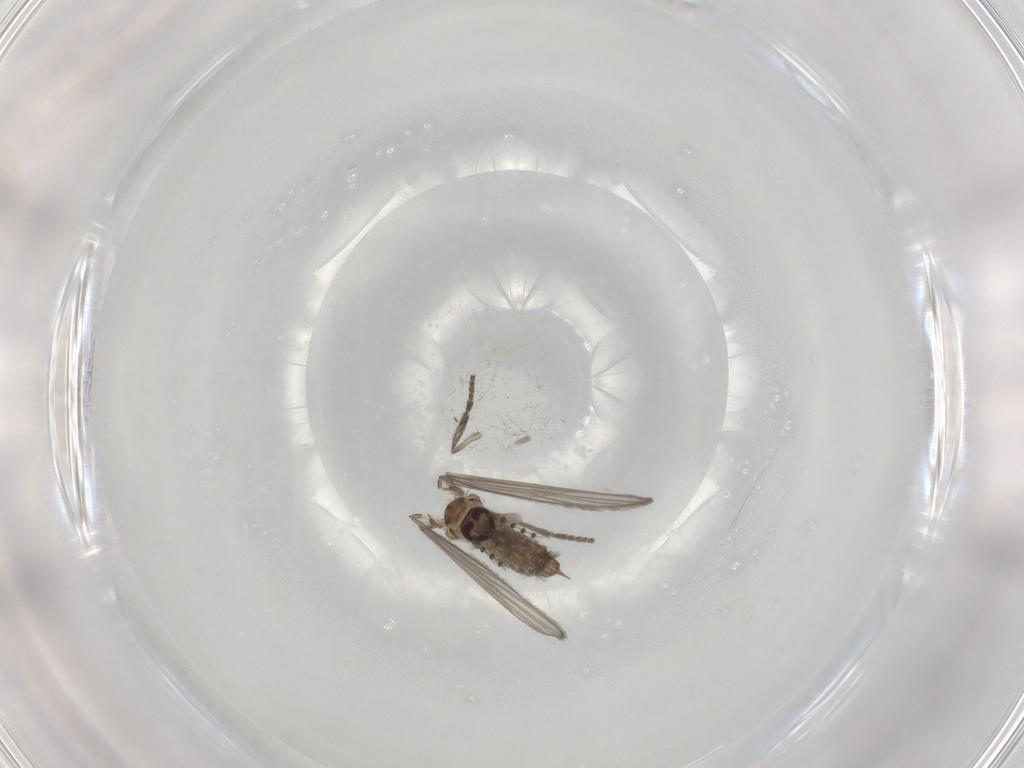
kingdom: Animalia
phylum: Arthropoda
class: Insecta
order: Diptera
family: Psychodidae
